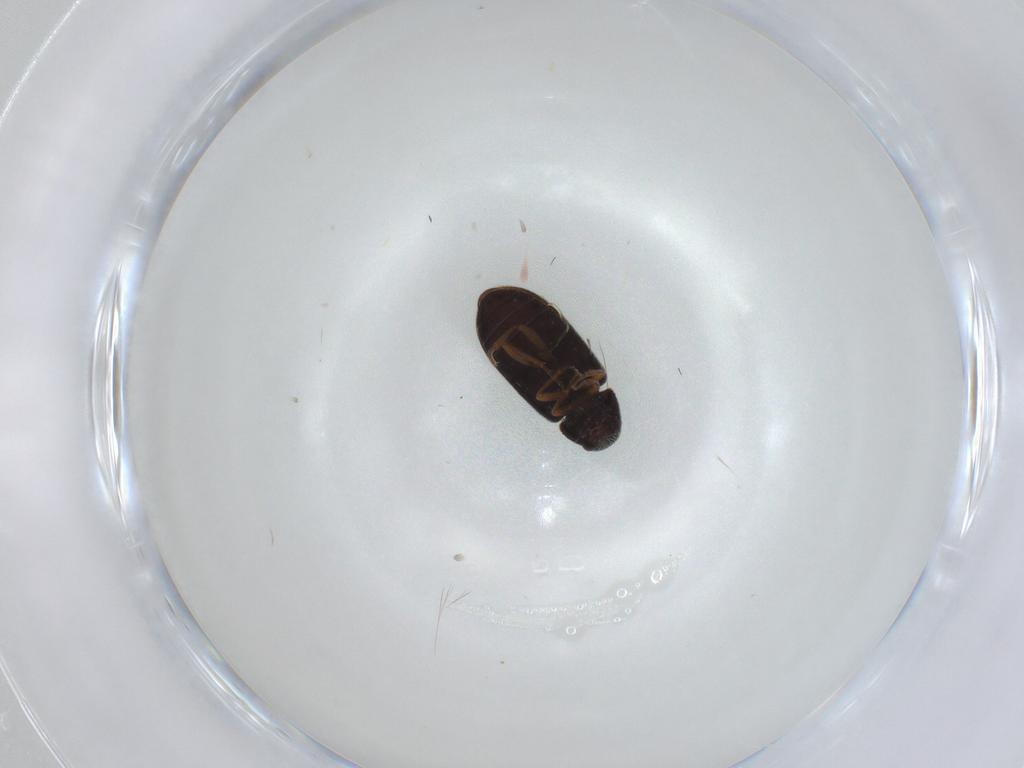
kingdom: Animalia
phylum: Arthropoda
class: Insecta
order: Coleoptera
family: Rhadalidae
